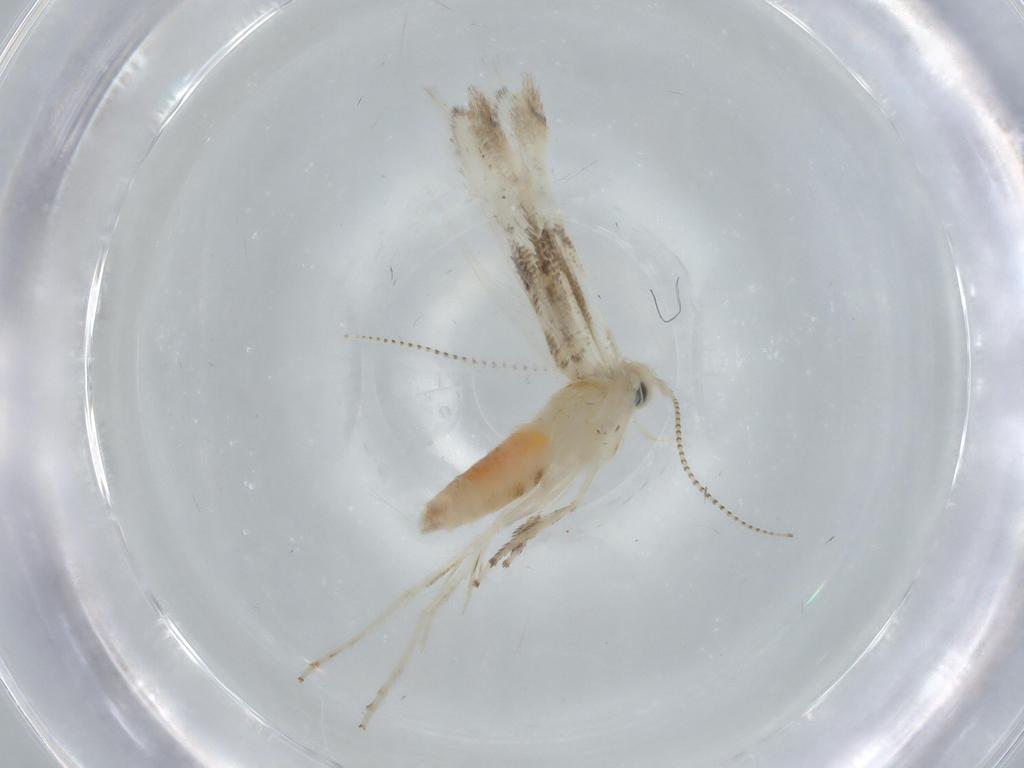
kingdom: Animalia
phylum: Arthropoda
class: Insecta
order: Lepidoptera
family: Gracillariidae
